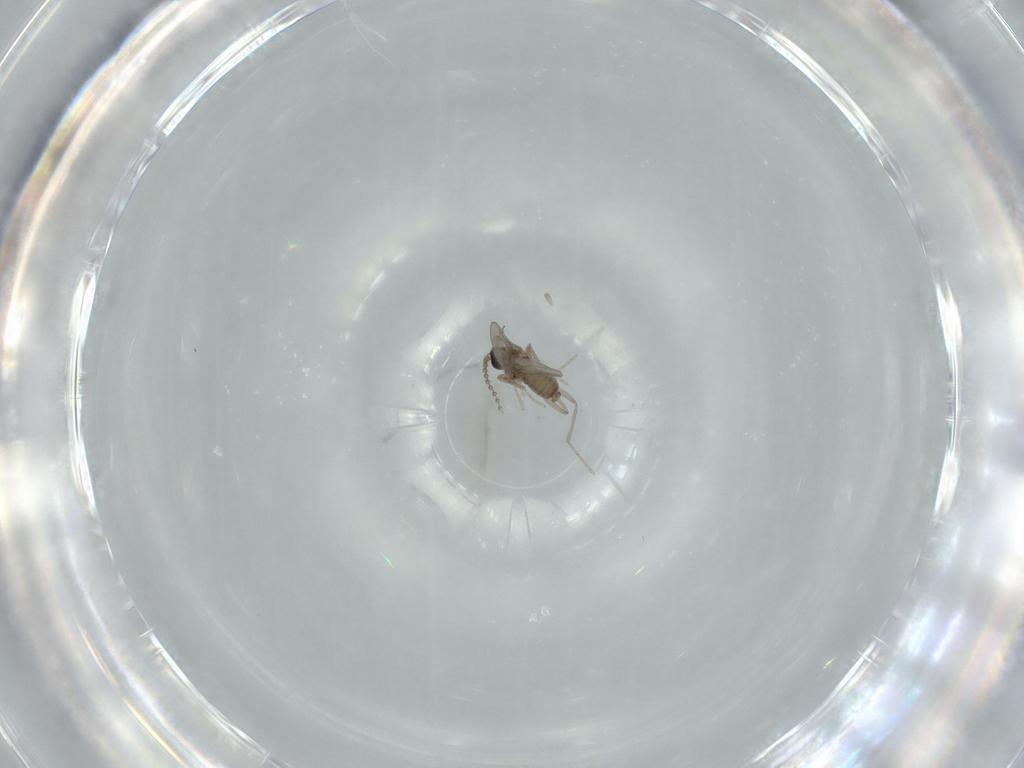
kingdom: Animalia
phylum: Arthropoda
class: Insecta
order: Diptera
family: Cecidomyiidae
